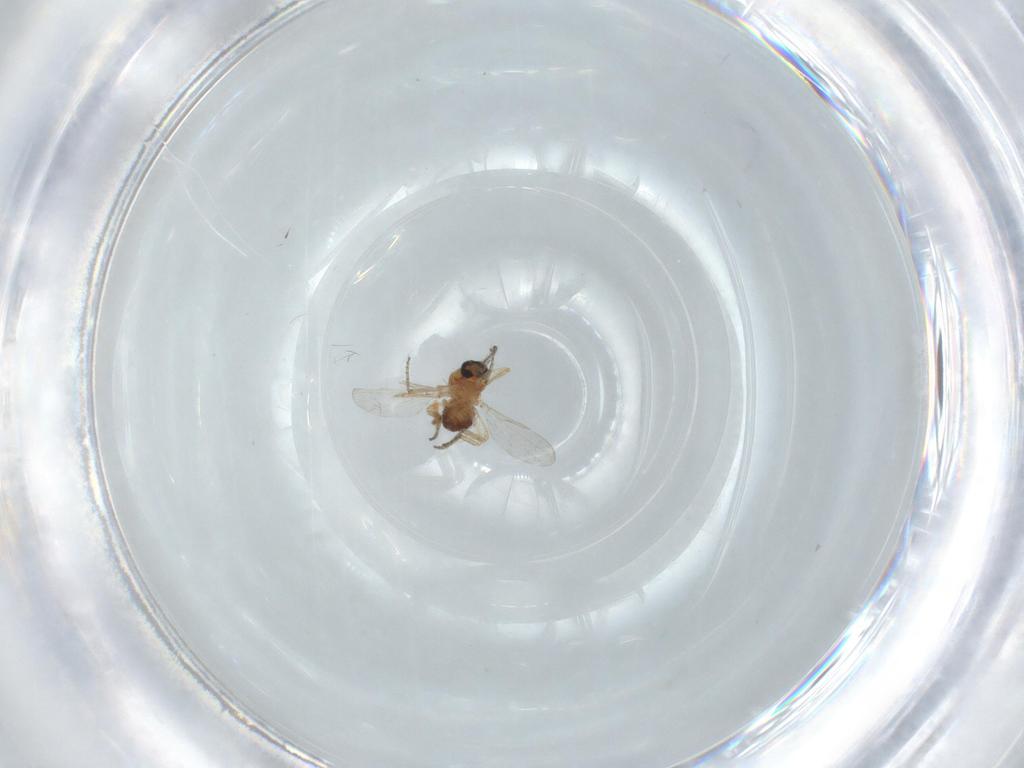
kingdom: Animalia
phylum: Arthropoda
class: Insecta
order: Diptera
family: Ceratopogonidae
